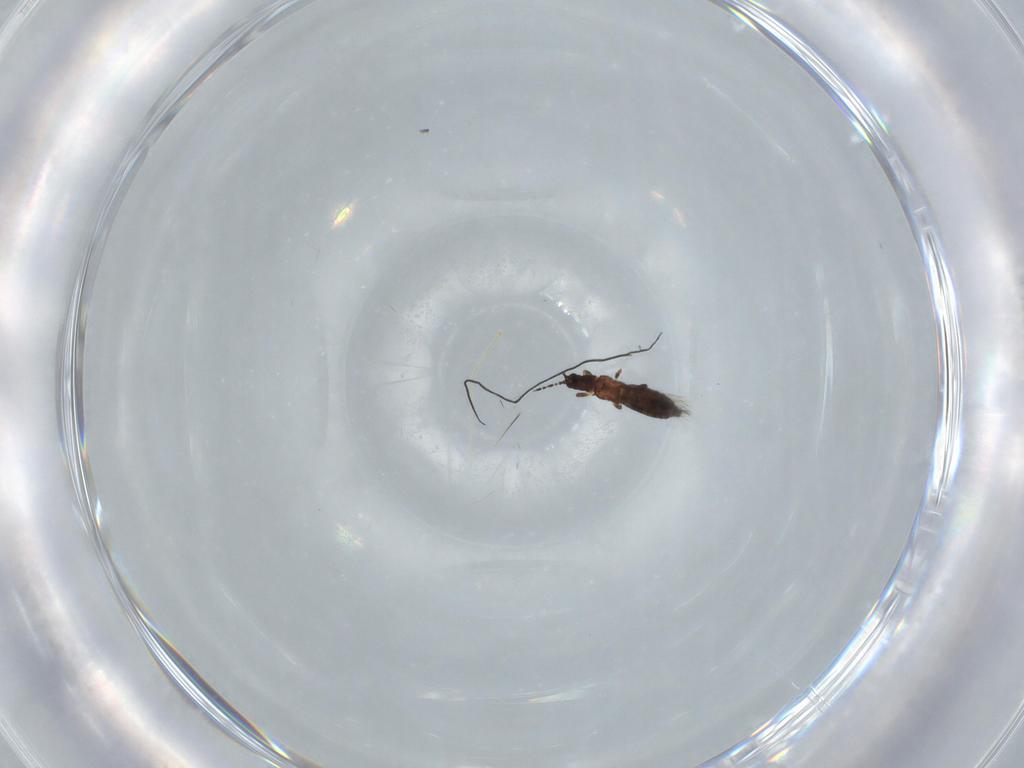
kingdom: Animalia
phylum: Arthropoda
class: Insecta
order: Thysanoptera
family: Thripidae
